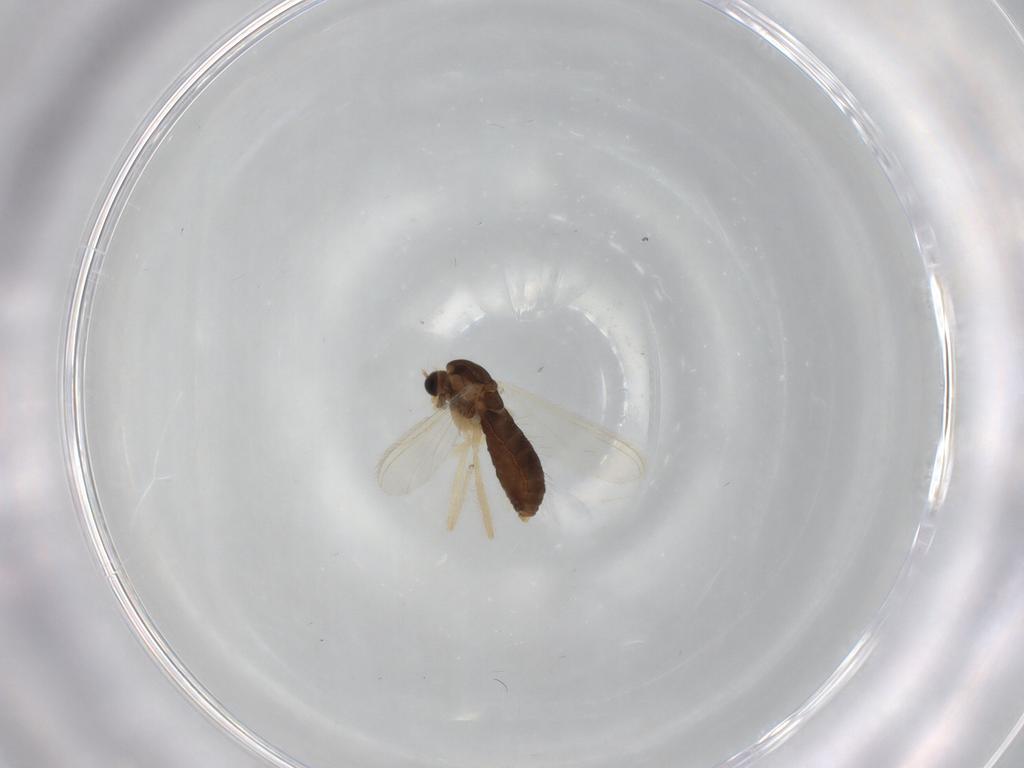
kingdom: Animalia
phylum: Arthropoda
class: Insecta
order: Diptera
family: Chironomidae
